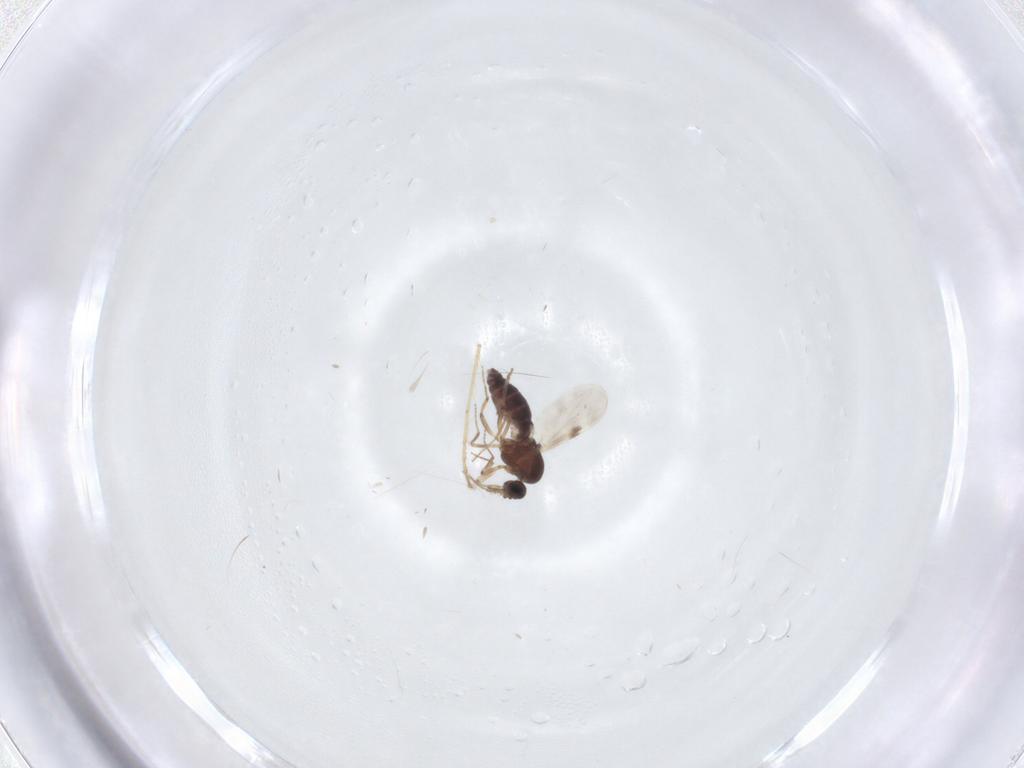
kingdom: Animalia
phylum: Arthropoda
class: Insecta
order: Diptera
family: Limoniidae
